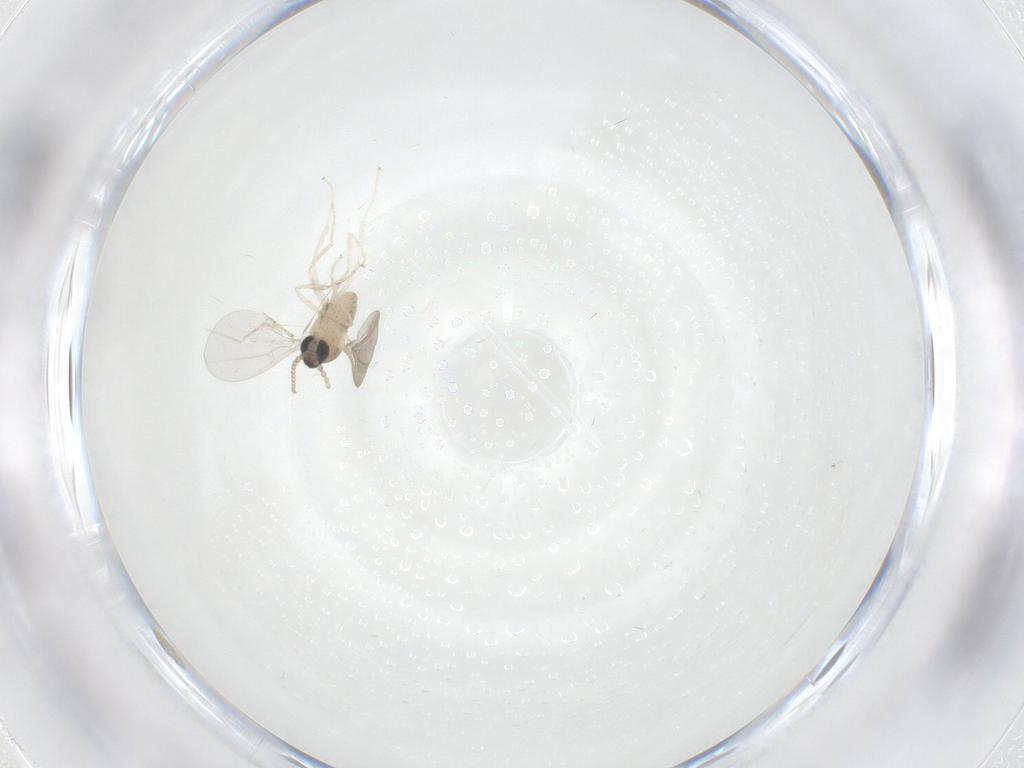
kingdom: Animalia
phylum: Arthropoda
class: Insecta
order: Diptera
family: Cecidomyiidae
